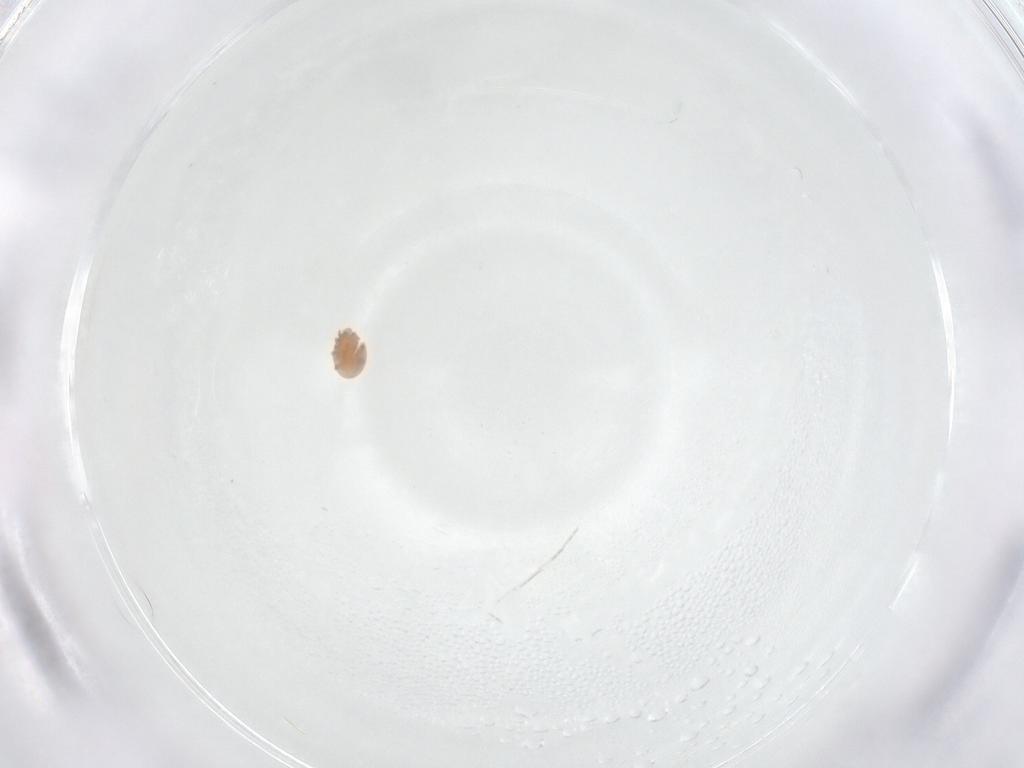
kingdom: Animalia
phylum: Arthropoda
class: Arachnida
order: Mesostigmata
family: Trematuridae
